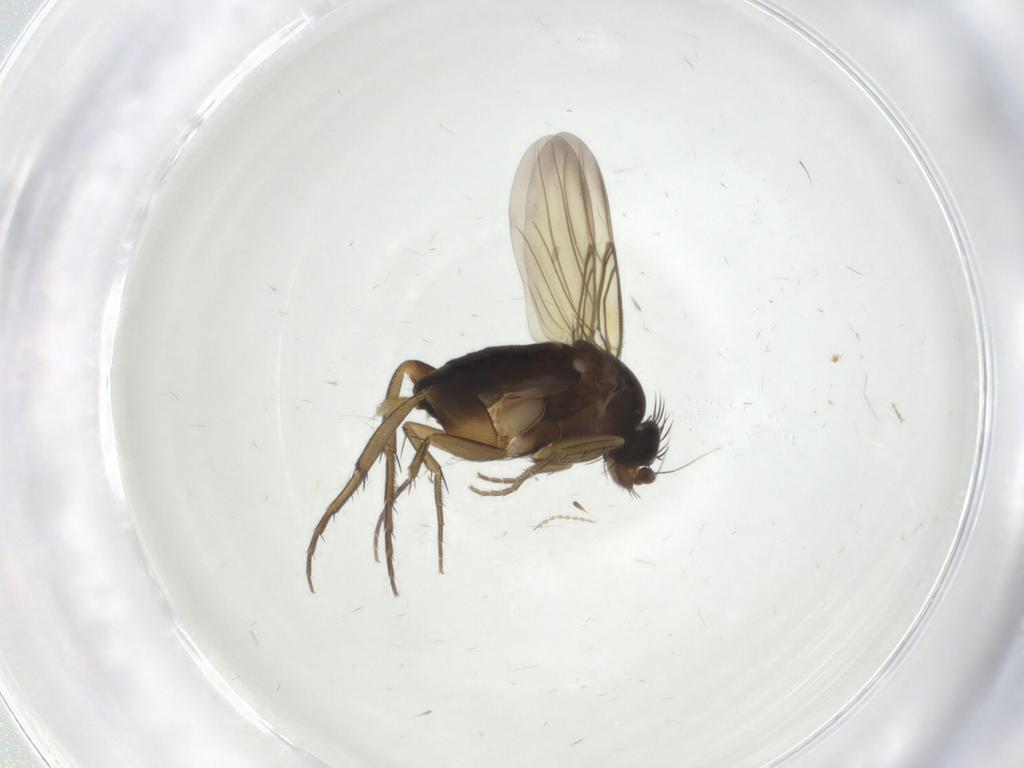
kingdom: Animalia
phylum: Arthropoda
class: Insecta
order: Diptera
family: Phoridae
